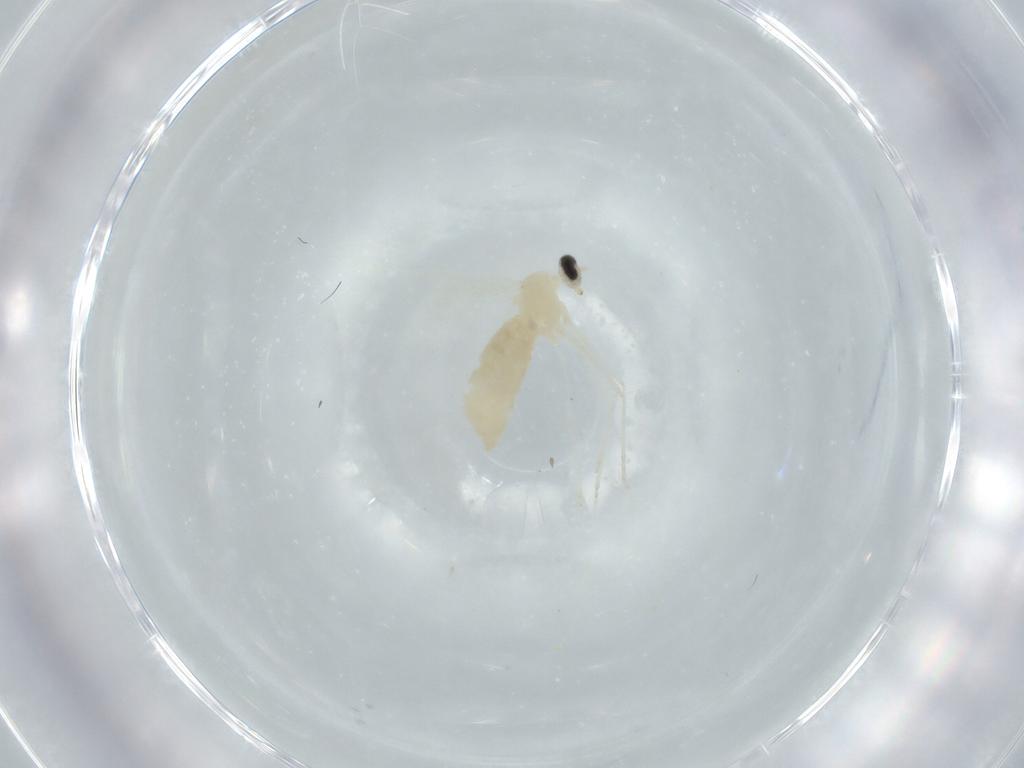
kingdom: Animalia
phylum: Arthropoda
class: Insecta
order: Diptera
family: Cecidomyiidae
